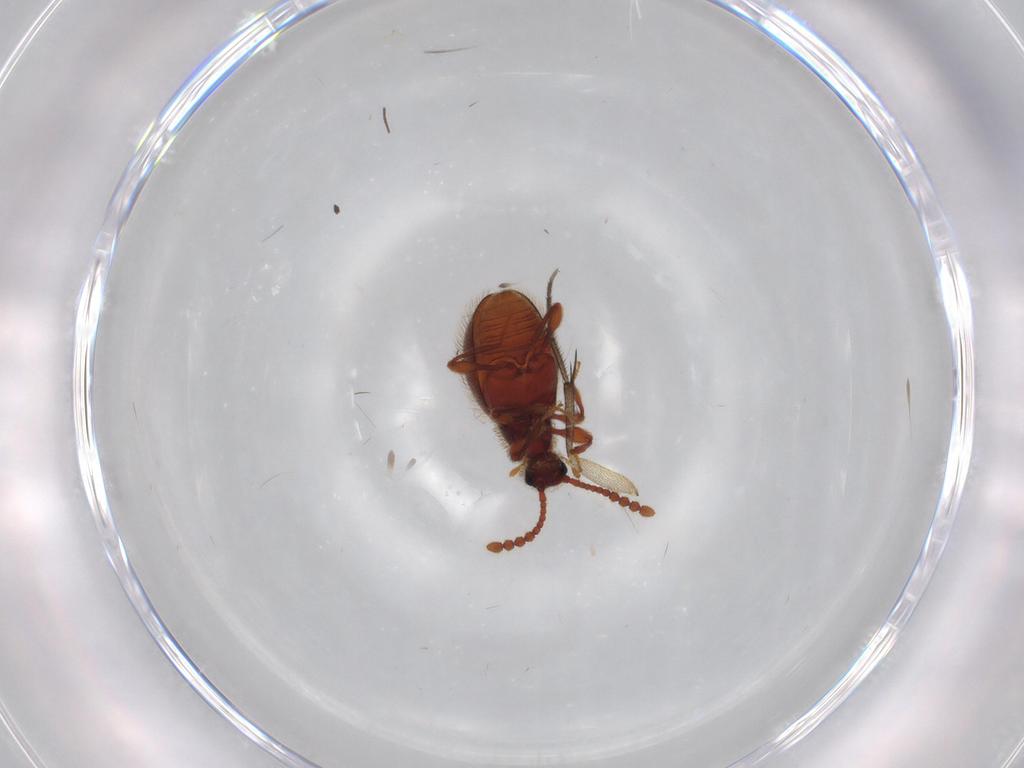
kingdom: Animalia
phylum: Arthropoda
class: Insecta
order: Coleoptera
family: Staphylinidae
